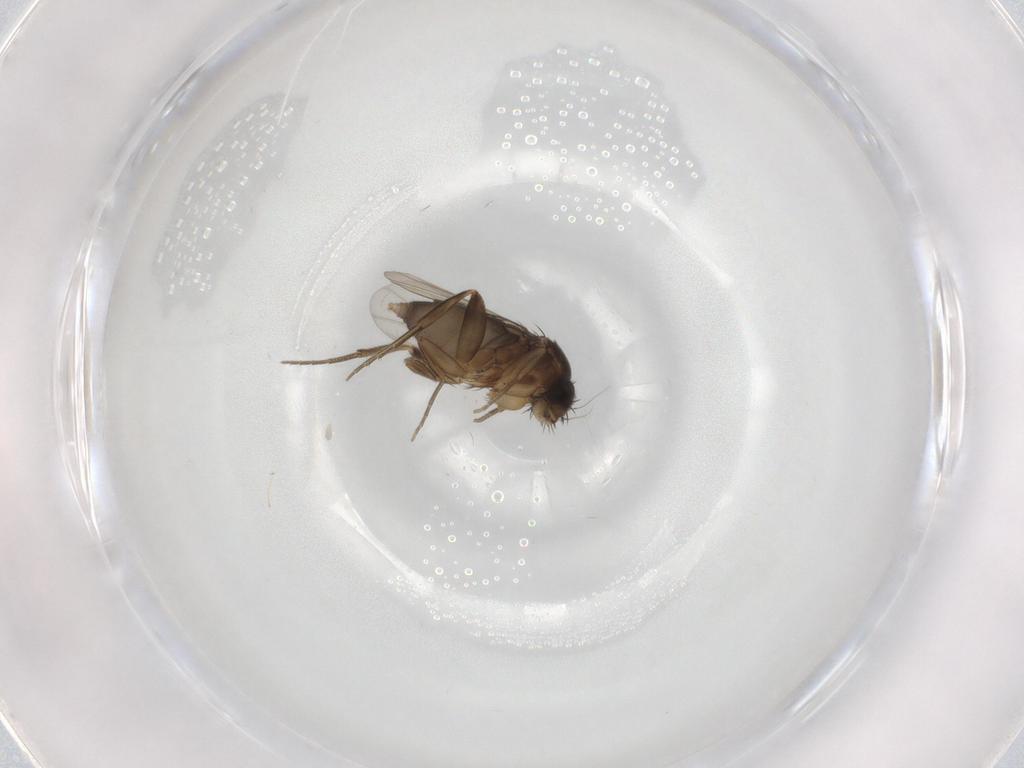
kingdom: Animalia
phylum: Arthropoda
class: Insecta
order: Diptera
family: Phoridae
